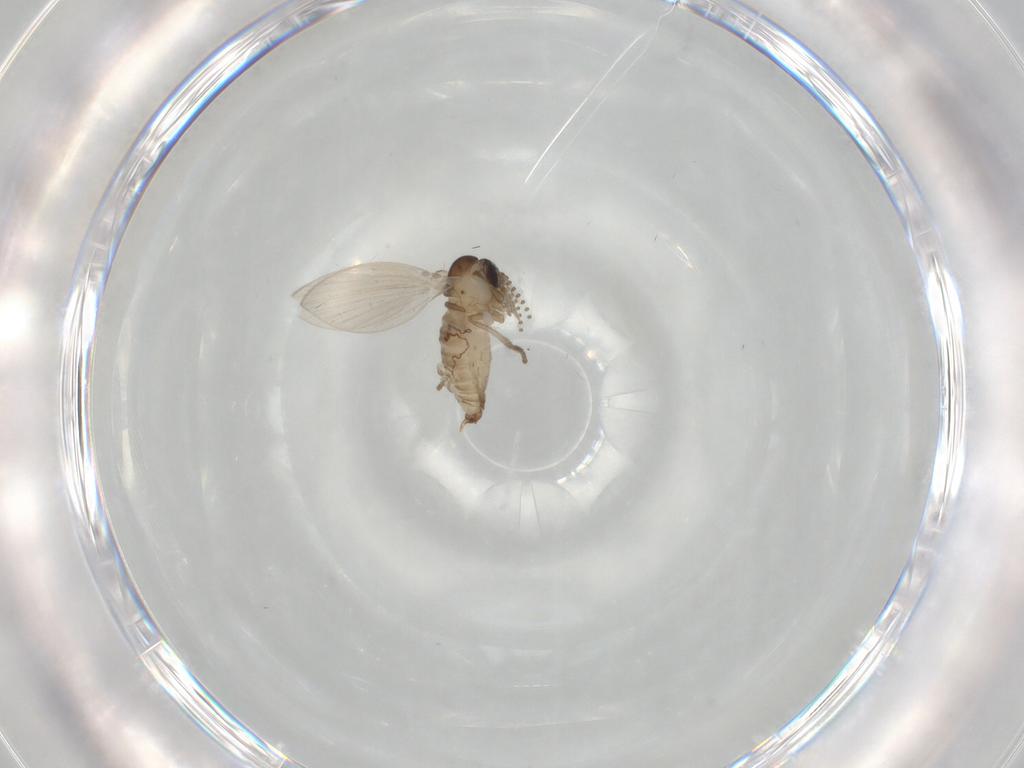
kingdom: Animalia
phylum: Arthropoda
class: Insecta
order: Diptera
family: Psychodidae
